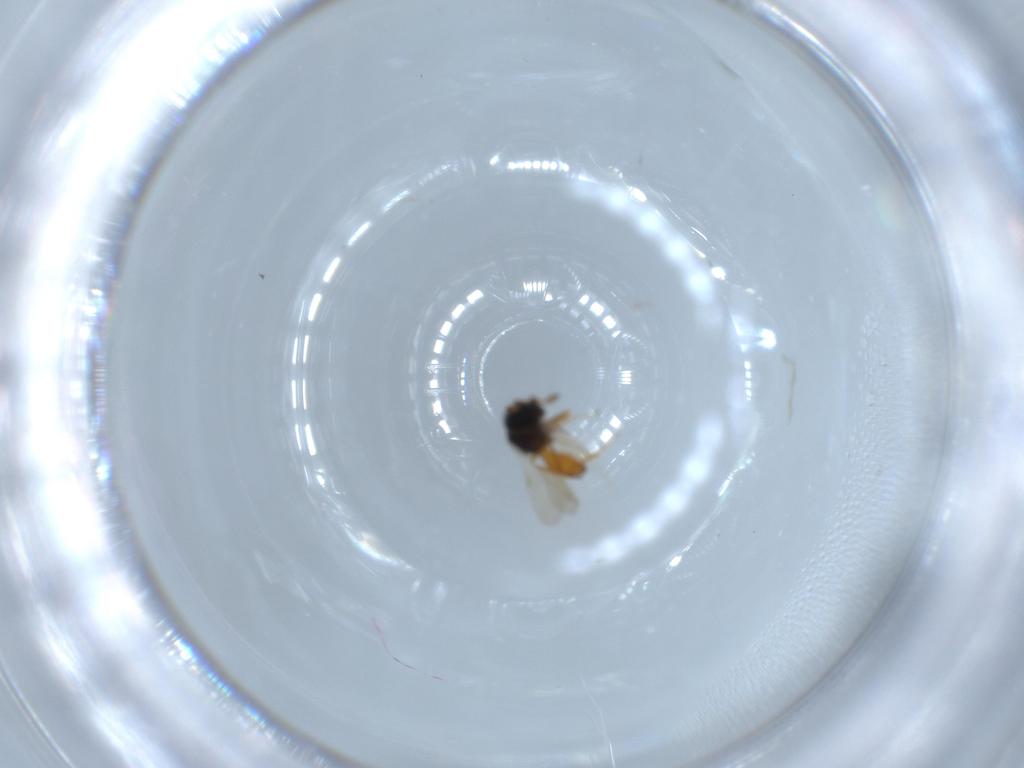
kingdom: Animalia
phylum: Arthropoda
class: Insecta
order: Hymenoptera
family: Scelionidae
